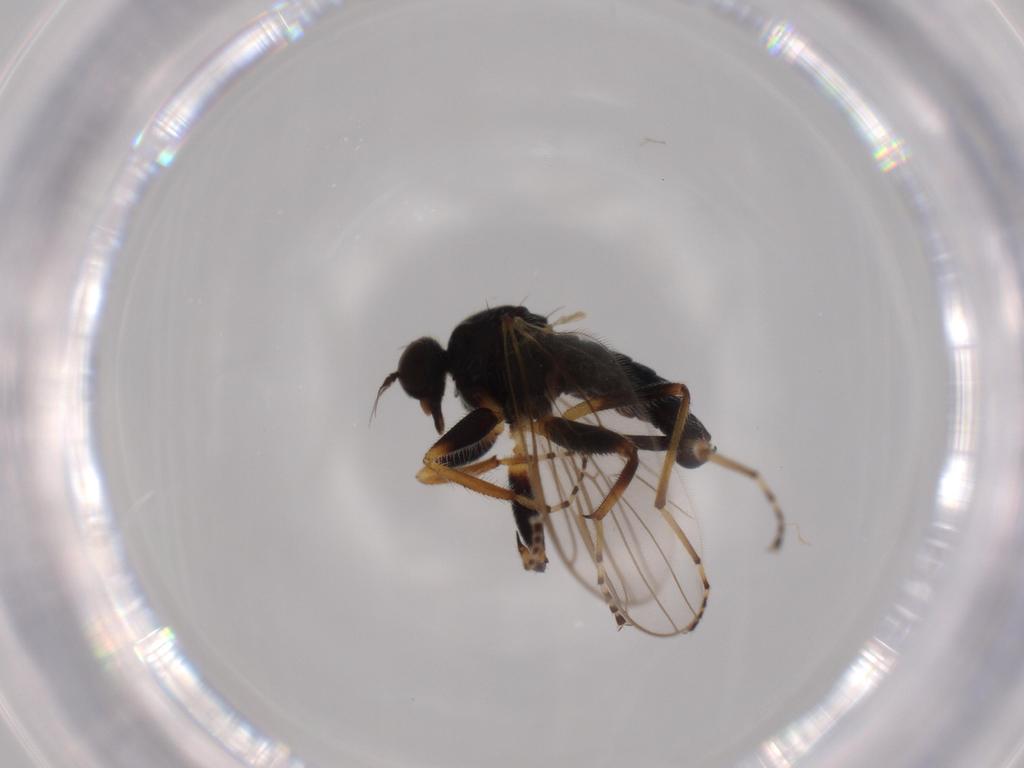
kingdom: Animalia
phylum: Arthropoda
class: Insecta
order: Diptera
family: Hybotidae
